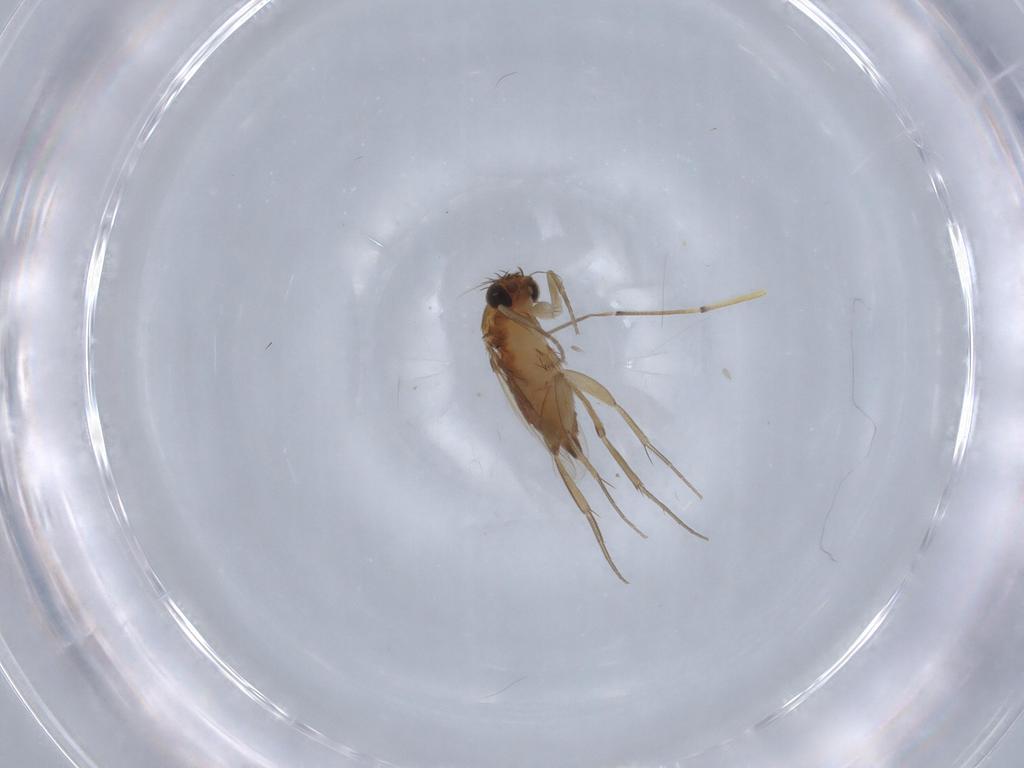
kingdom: Animalia
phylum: Arthropoda
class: Insecta
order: Diptera
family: Phoridae
